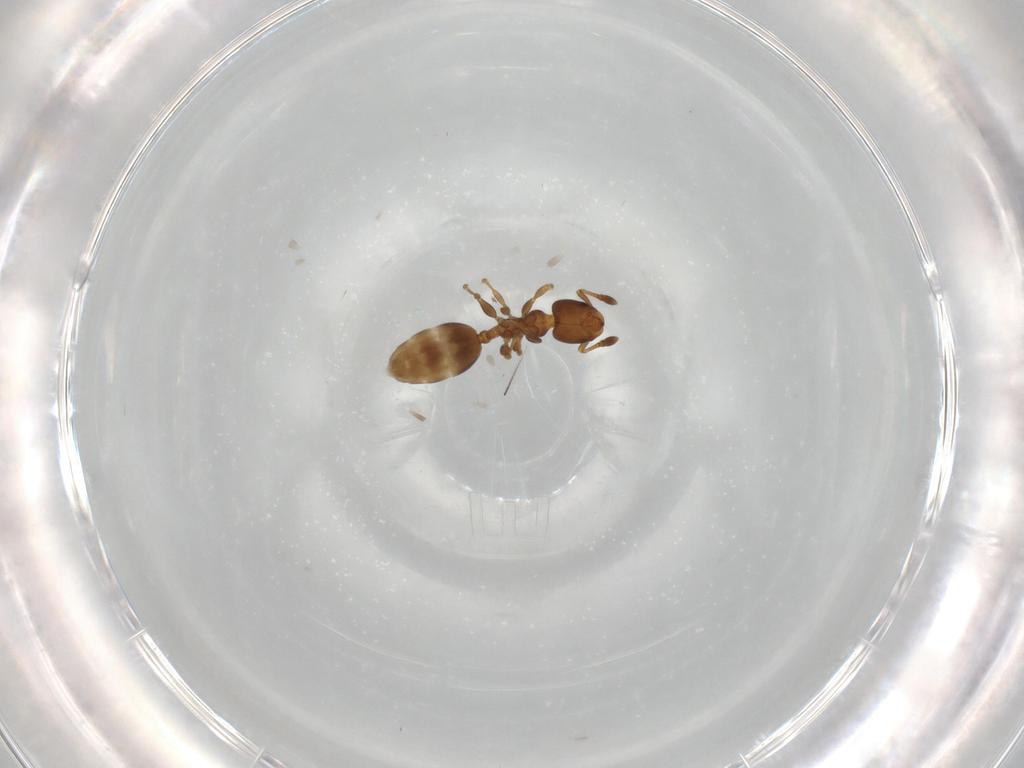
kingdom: Animalia
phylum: Arthropoda
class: Insecta
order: Hymenoptera
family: Formicidae
